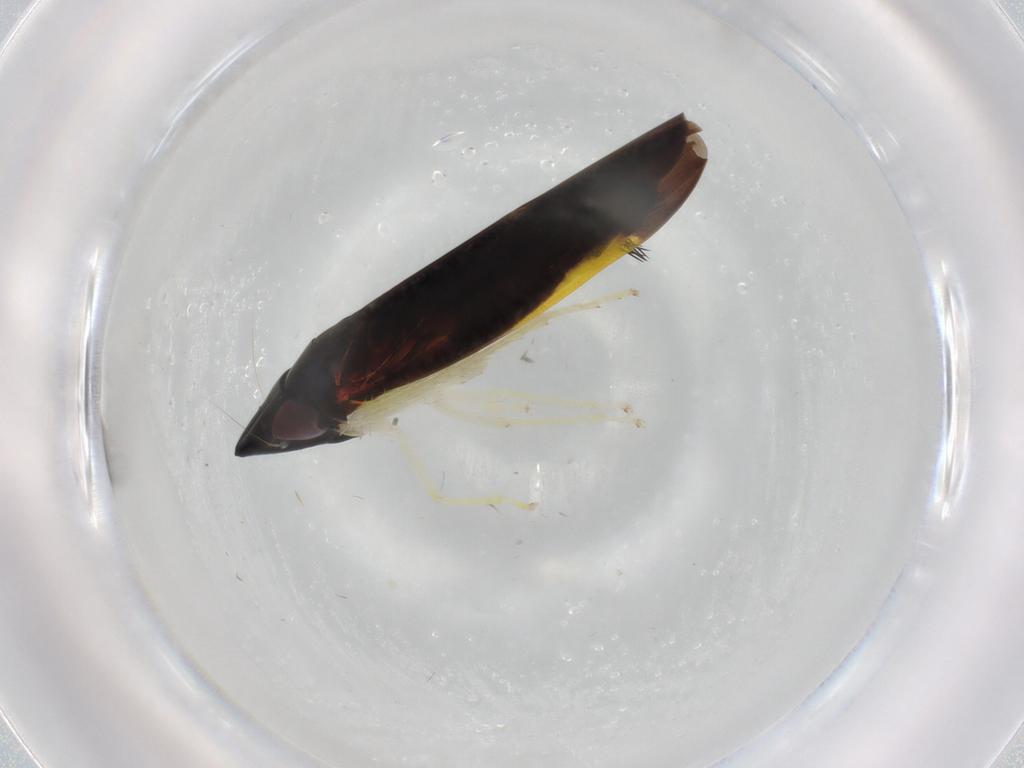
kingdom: Animalia
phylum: Arthropoda
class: Insecta
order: Hemiptera
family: Cicadellidae
